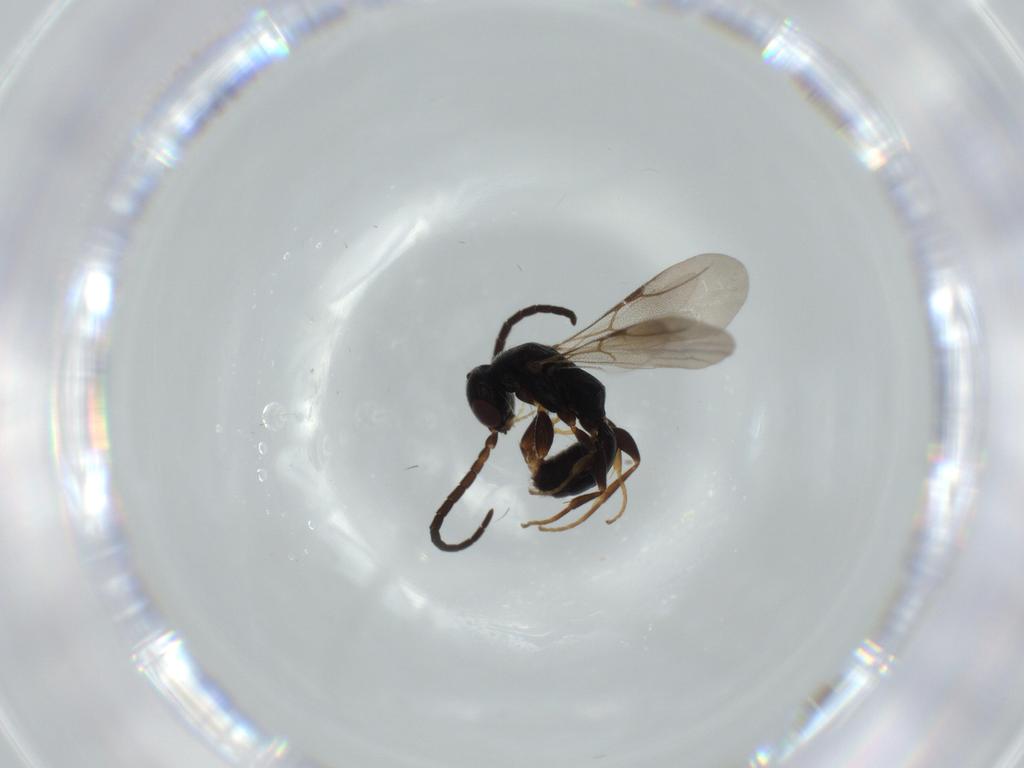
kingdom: Animalia
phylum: Arthropoda
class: Insecta
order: Hymenoptera
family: Bethylidae
